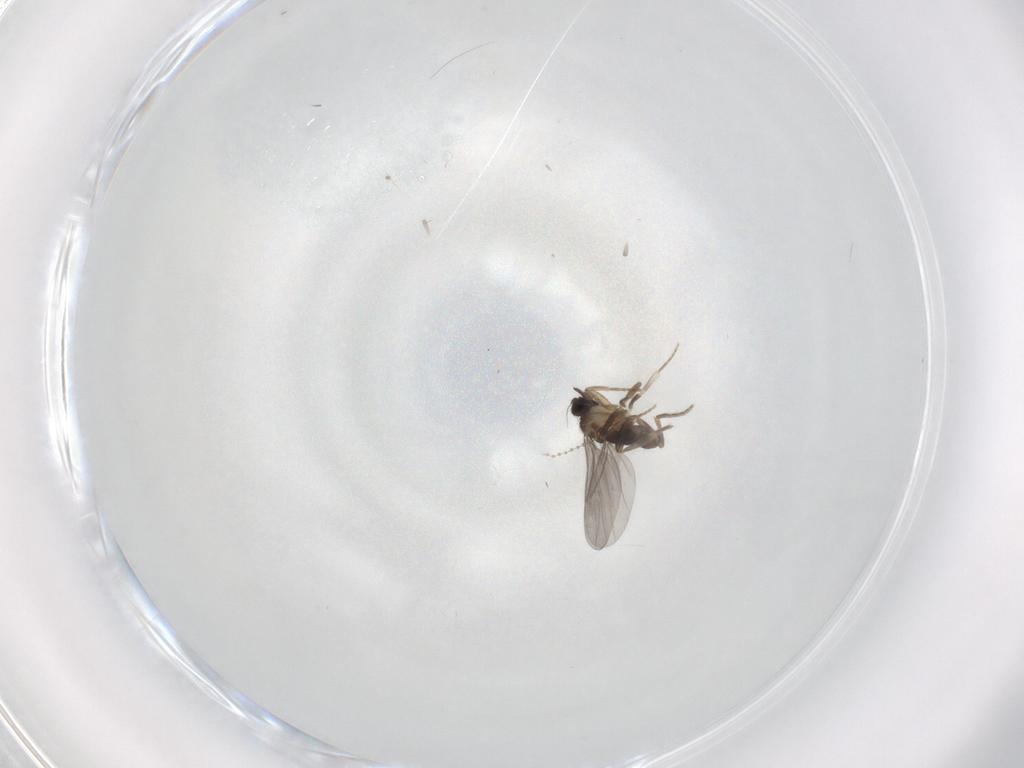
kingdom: Animalia
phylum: Arthropoda
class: Insecta
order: Diptera
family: Phoridae
